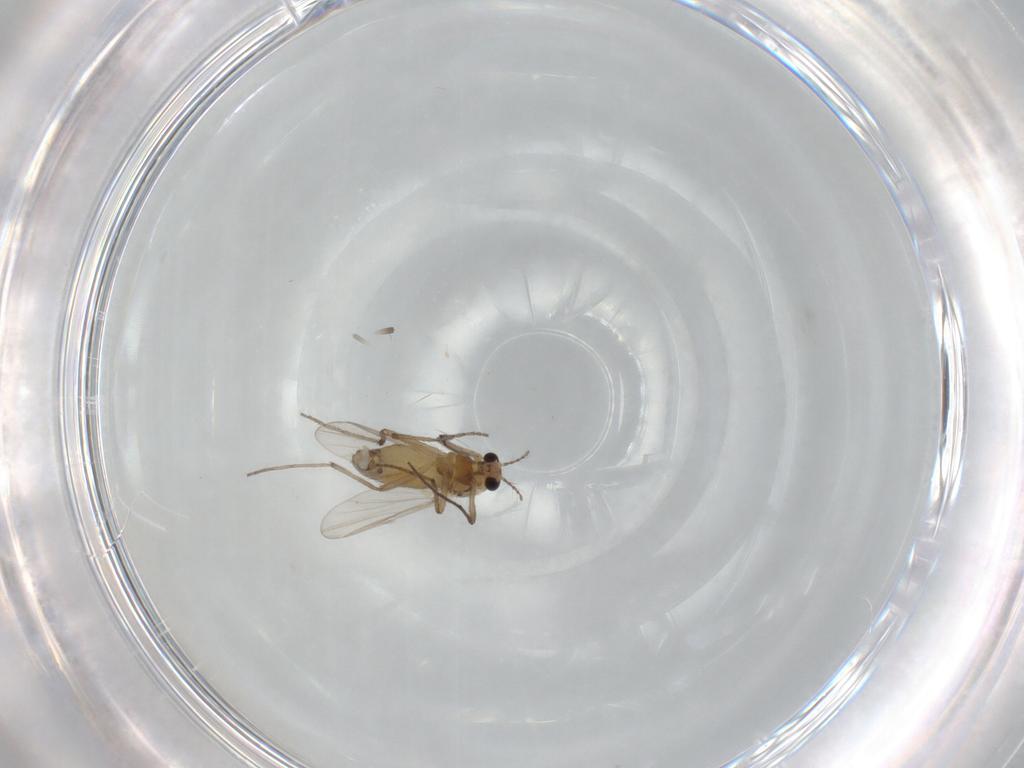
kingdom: Animalia
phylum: Arthropoda
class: Insecta
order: Diptera
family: Chironomidae
